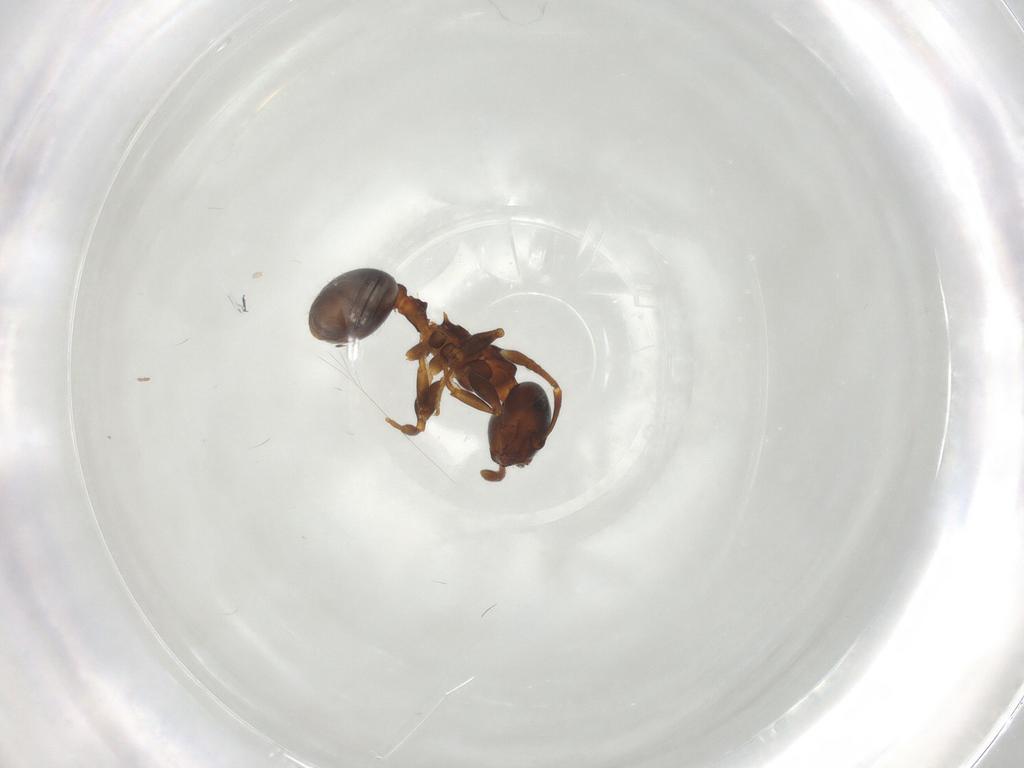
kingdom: Animalia
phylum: Arthropoda
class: Insecta
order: Hymenoptera
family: Formicidae
